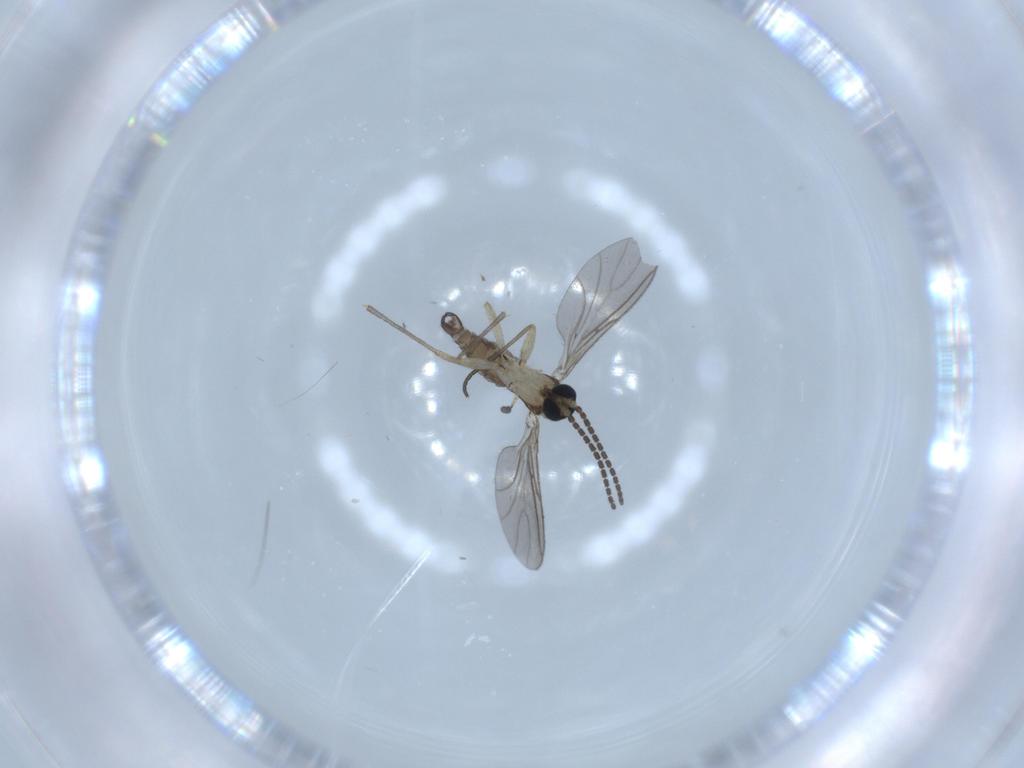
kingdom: Animalia
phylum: Arthropoda
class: Insecta
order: Diptera
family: Sciaridae
